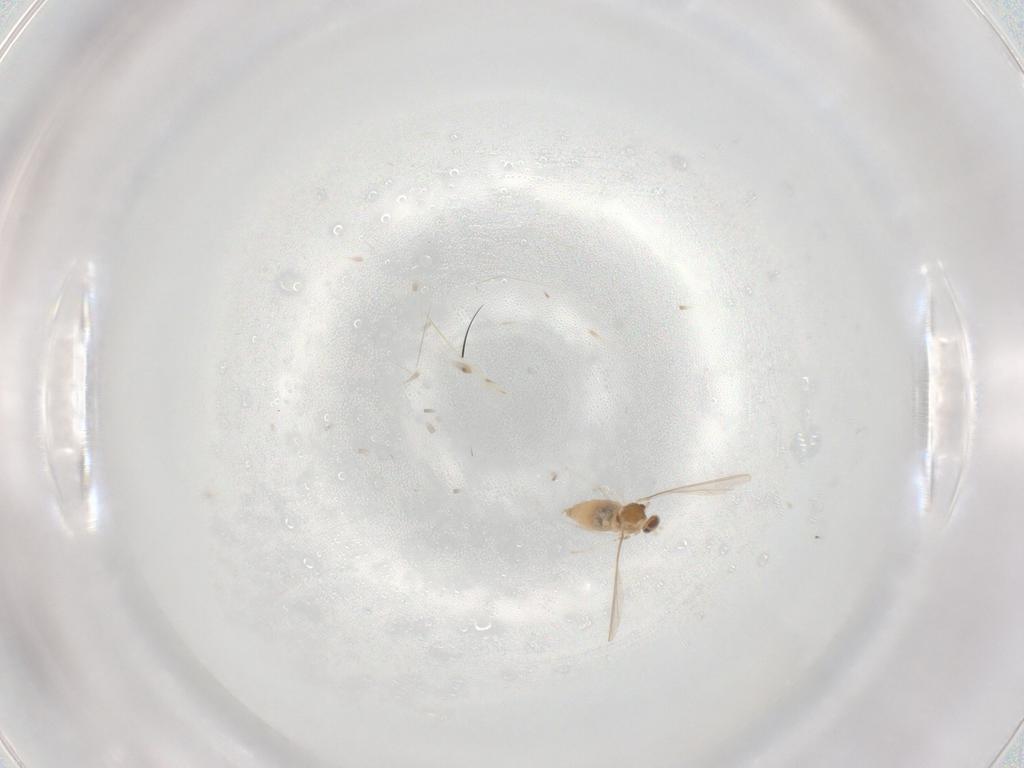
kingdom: Animalia
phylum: Arthropoda
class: Insecta
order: Diptera
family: Cecidomyiidae
